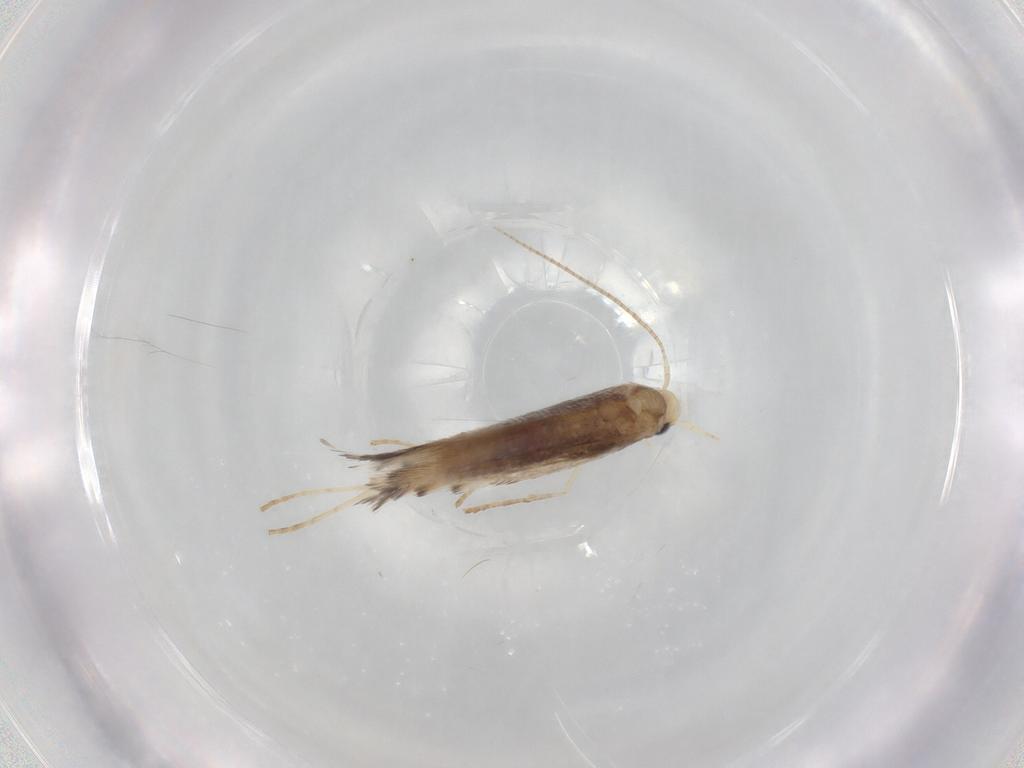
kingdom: Animalia
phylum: Arthropoda
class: Insecta
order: Lepidoptera
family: Gracillariidae
